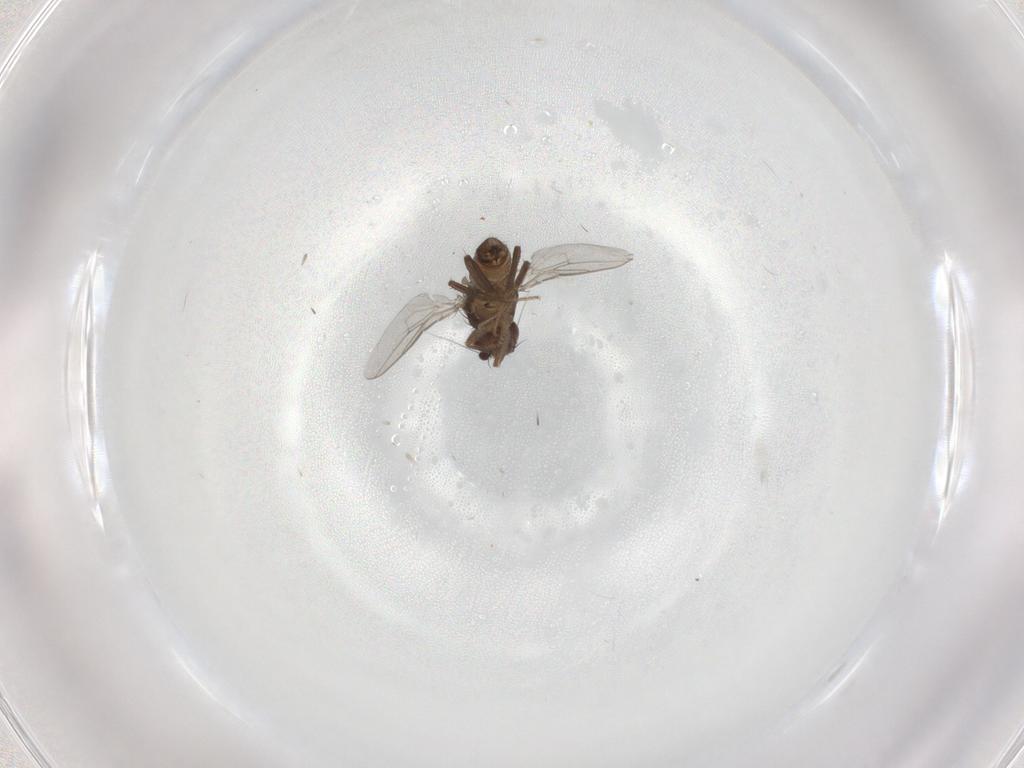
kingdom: Animalia
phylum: Arthropoda
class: Insecta
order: Diptera
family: Sphaeroceridae
